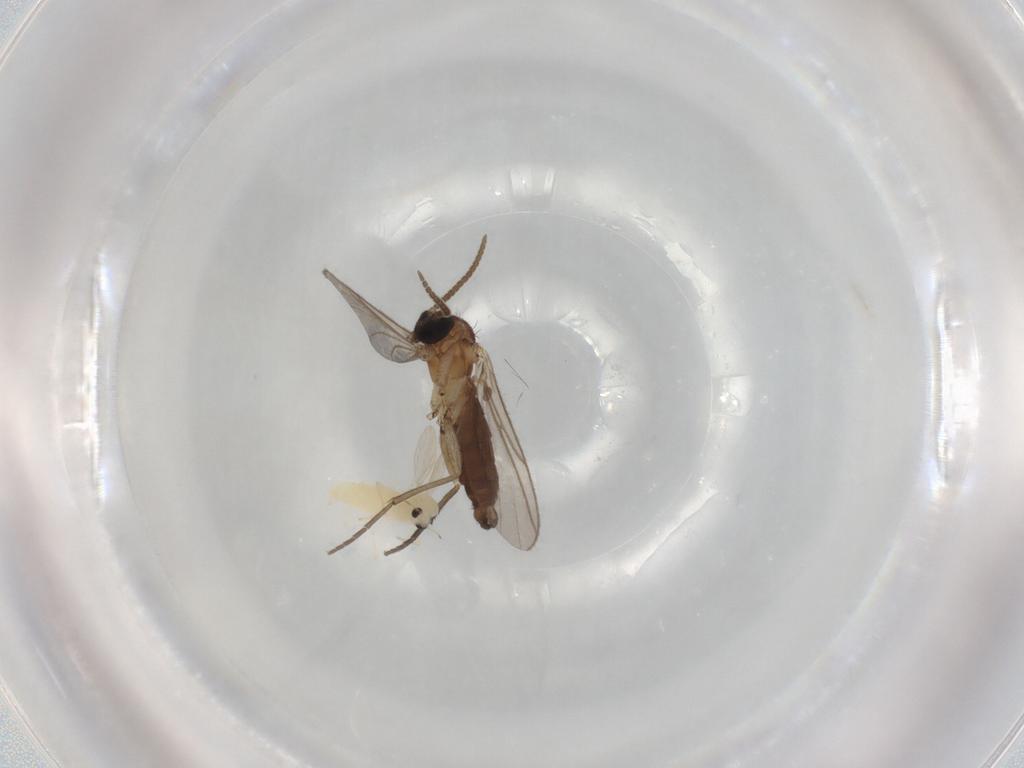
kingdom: Animalia
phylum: Arthropoda
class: Insecta
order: Diptera
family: Chironomidae
